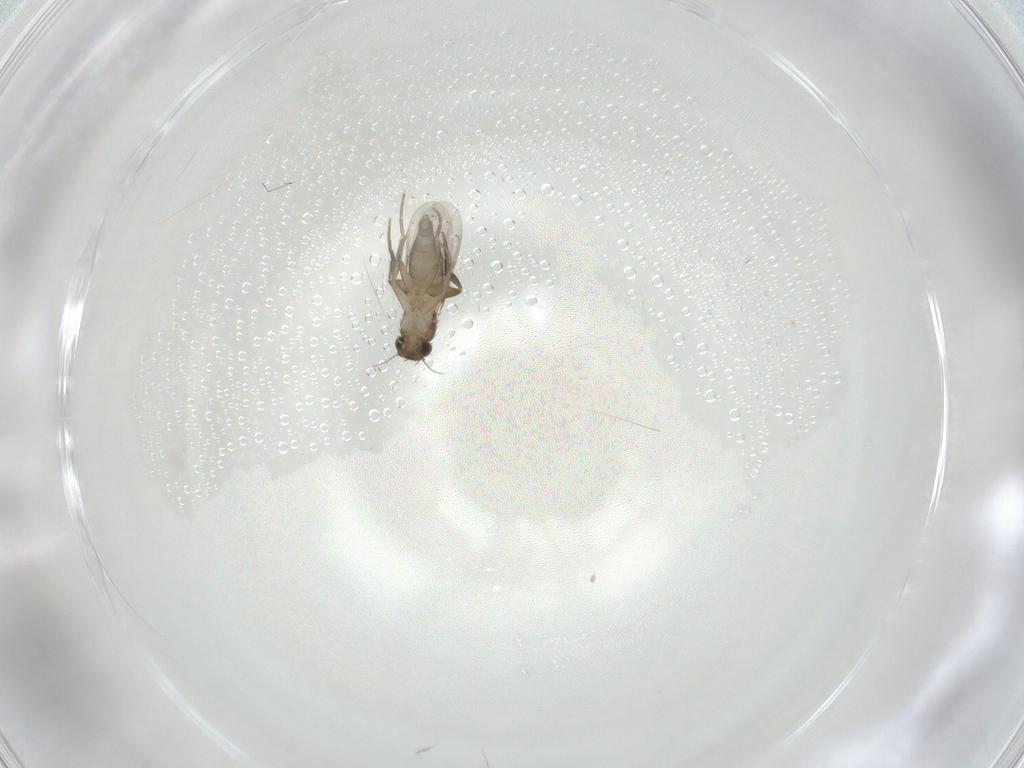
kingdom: Animalia
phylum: Arthropoda
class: Insecta
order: Diptera
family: Phoridae
